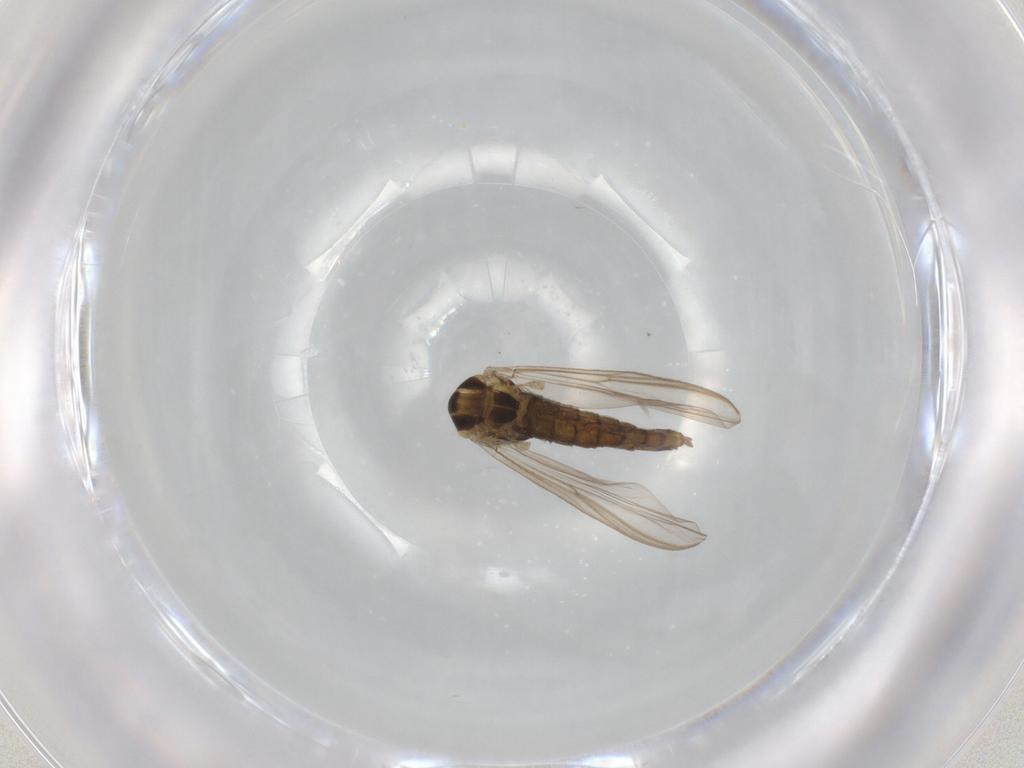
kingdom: Animalia
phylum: Arthropoda
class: Insecta
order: Diptera
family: Chironomidae
